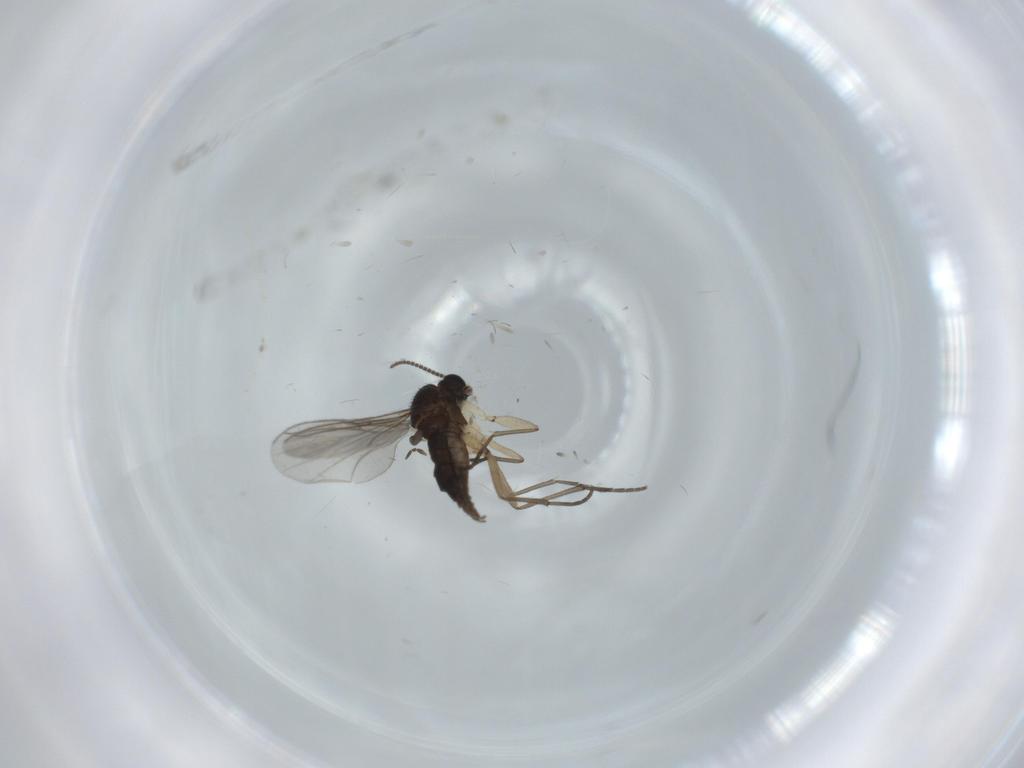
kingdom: Animalia
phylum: Arthropoda
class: Insecta
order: Diptera
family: Sciaridae
